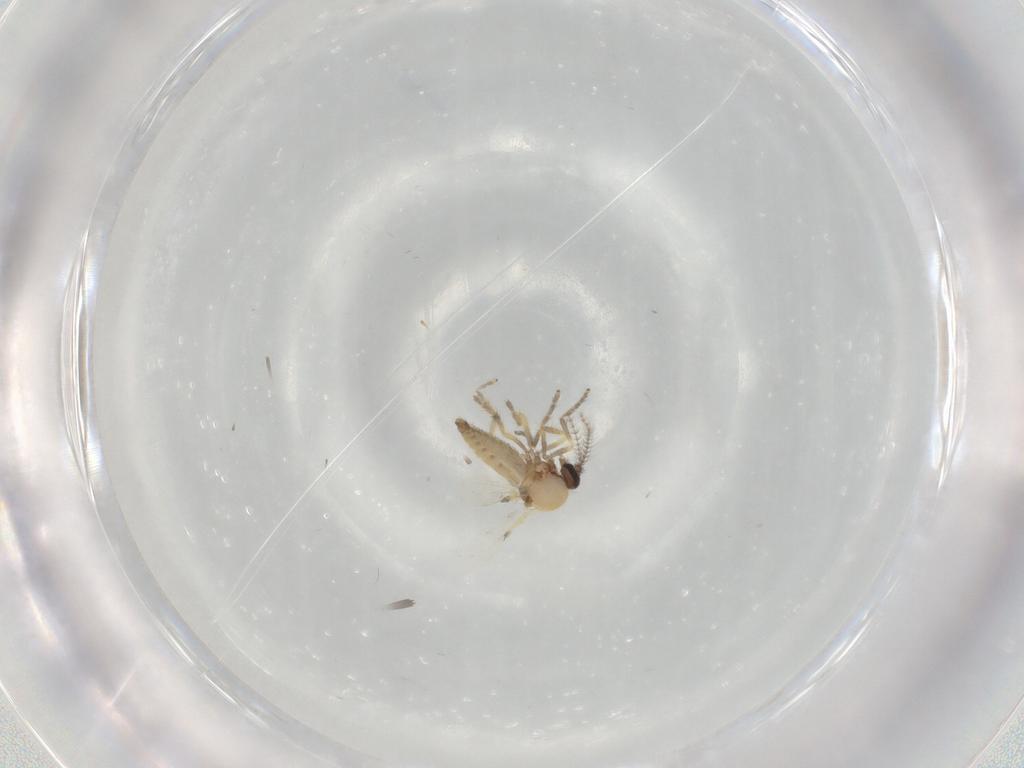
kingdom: Animalia
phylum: Arthropoda
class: Insecta
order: Diptera
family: Ceratopogonidae
